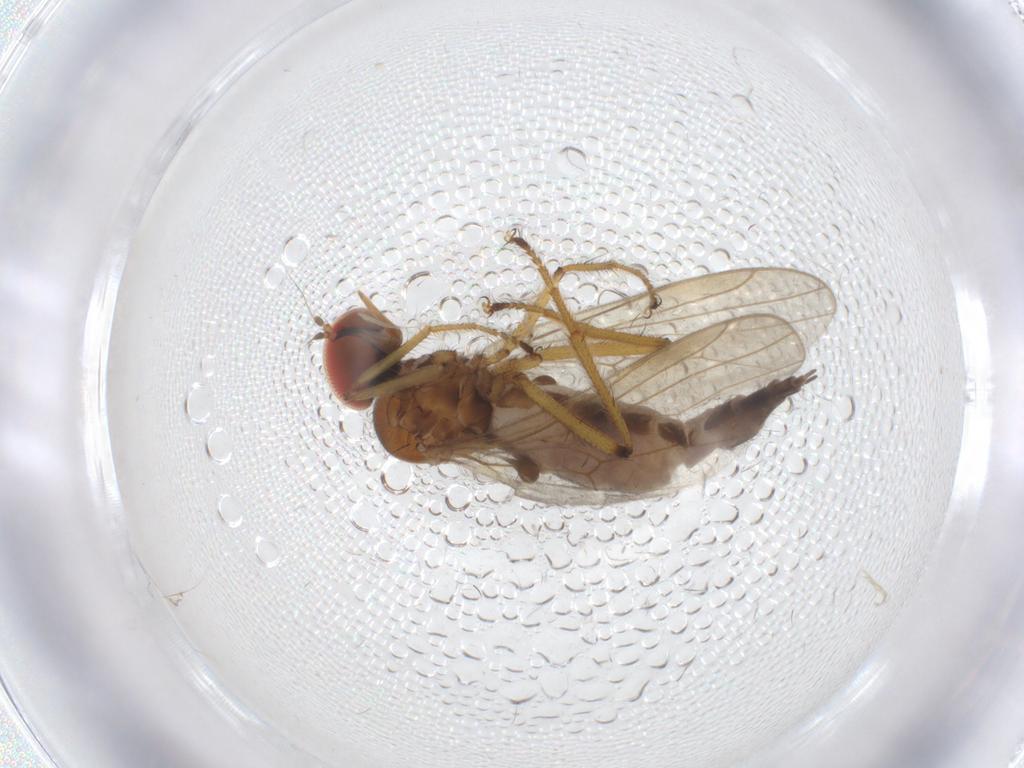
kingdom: Animalia
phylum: Arthropoda
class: Insecta
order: Diptera
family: Hybotidae
